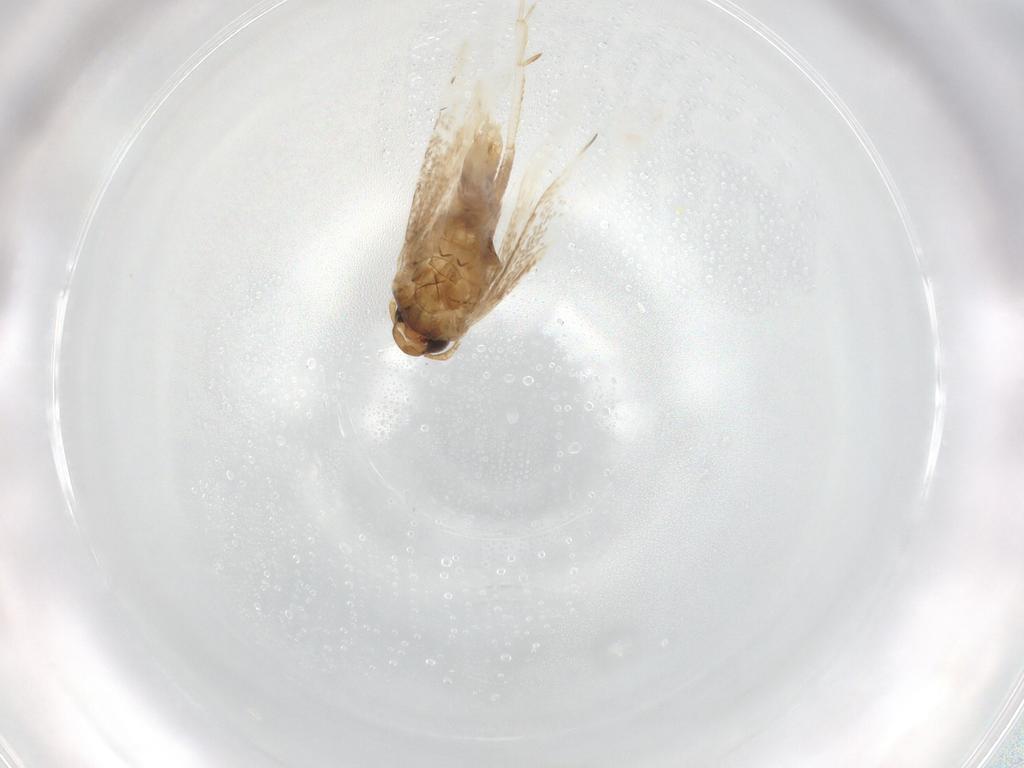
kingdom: Animalia
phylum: Arthropoda
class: Insecta
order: Lepidoptera
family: Gelechiidae
